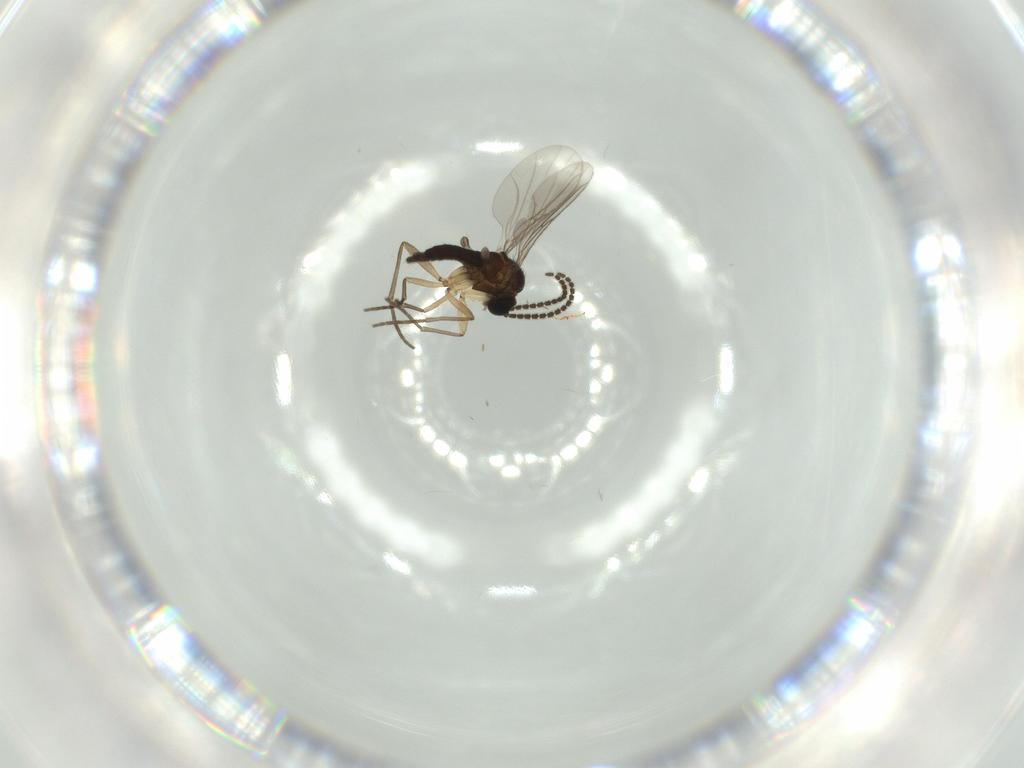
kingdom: Animalia
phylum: Arthropoda
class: Insecta
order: Diptera
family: Sciaridae
